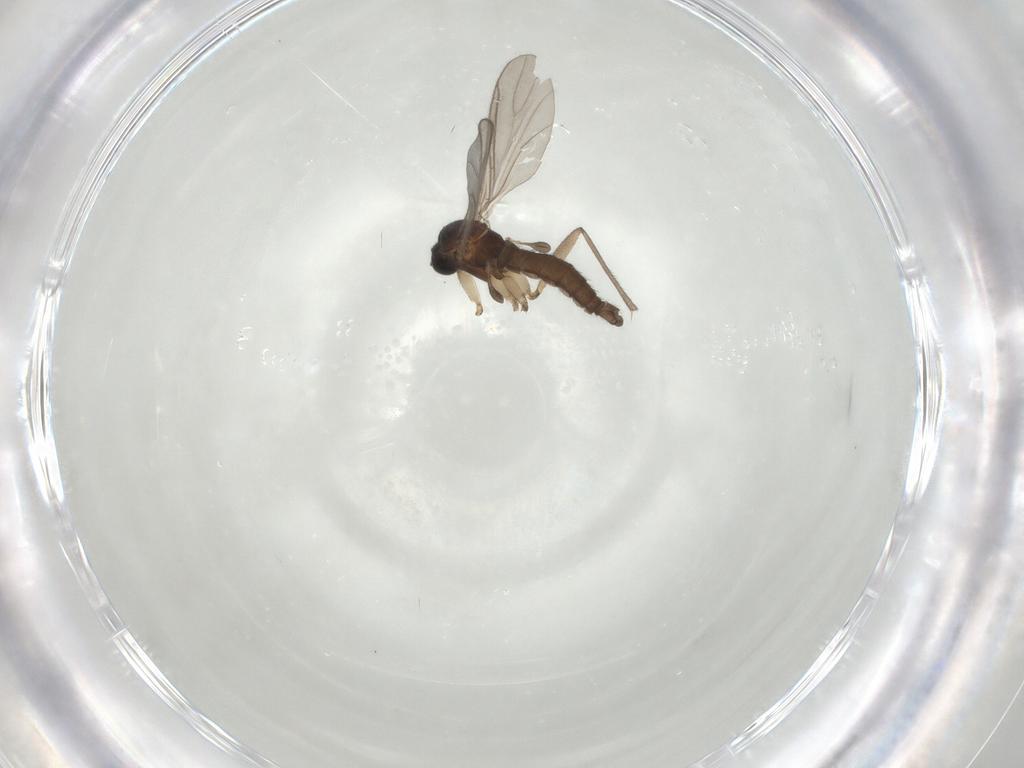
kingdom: Animalia
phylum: Arthropoda
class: Insecta
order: Diptera
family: Sciaridae
